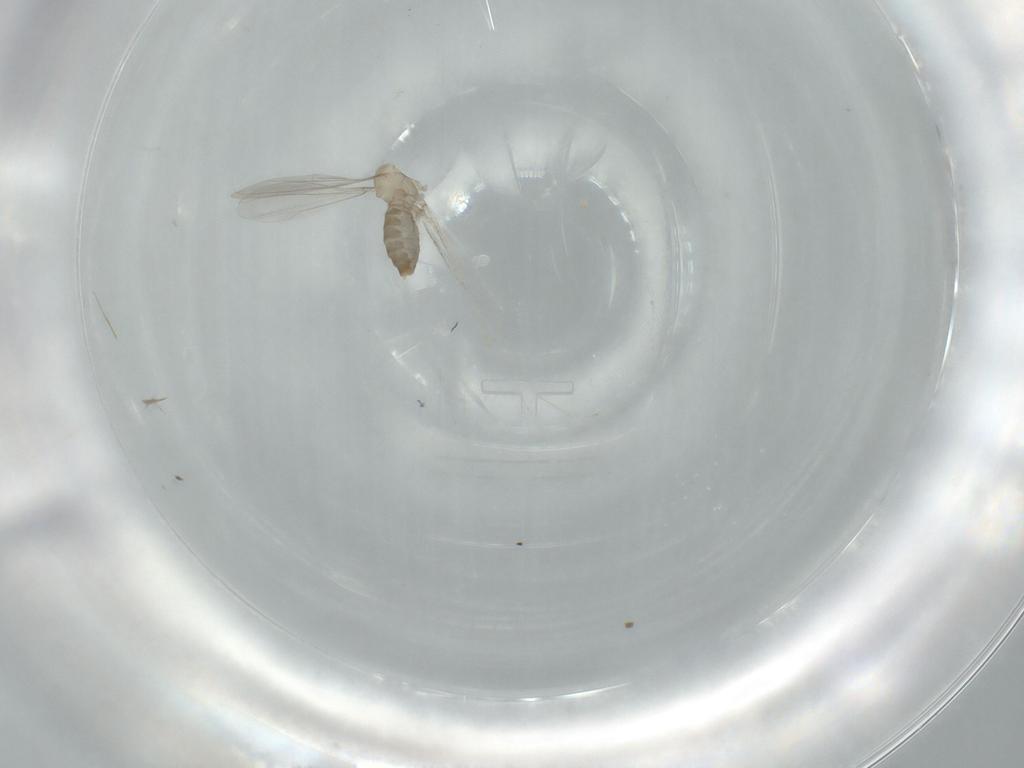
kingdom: Animalia
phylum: Arthropoda
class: Insecta
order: Diptera
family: Cecidomyiidae
